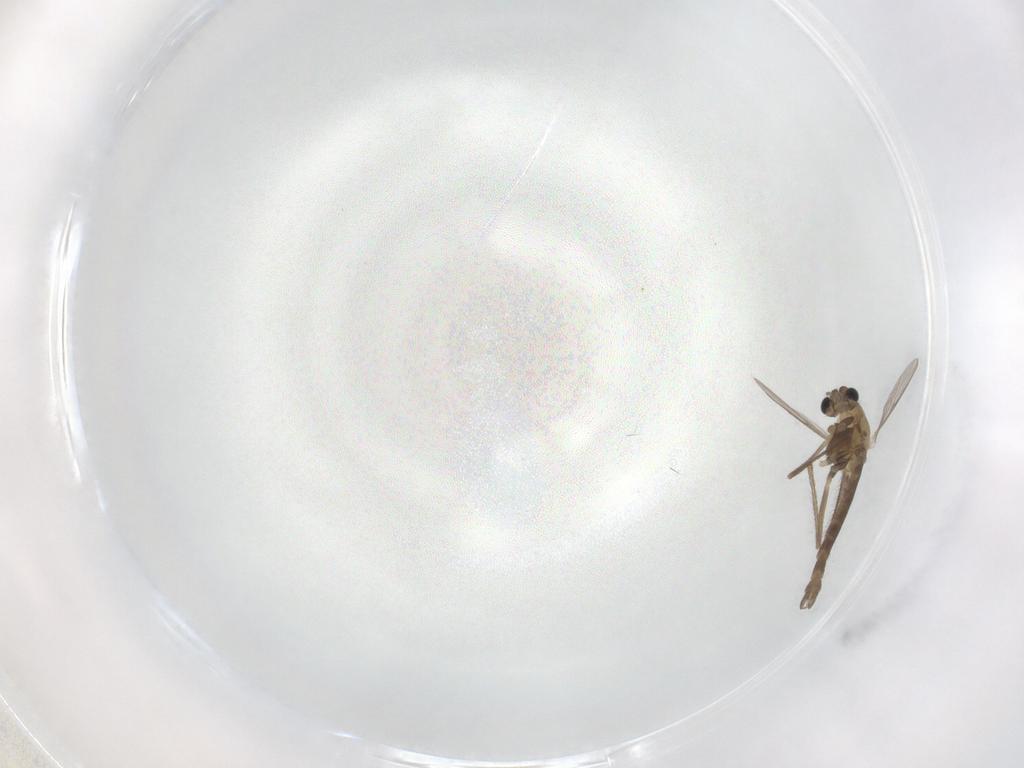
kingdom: Animalia
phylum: Arthropoda
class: Insecta
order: Diptera
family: Chironomidae
